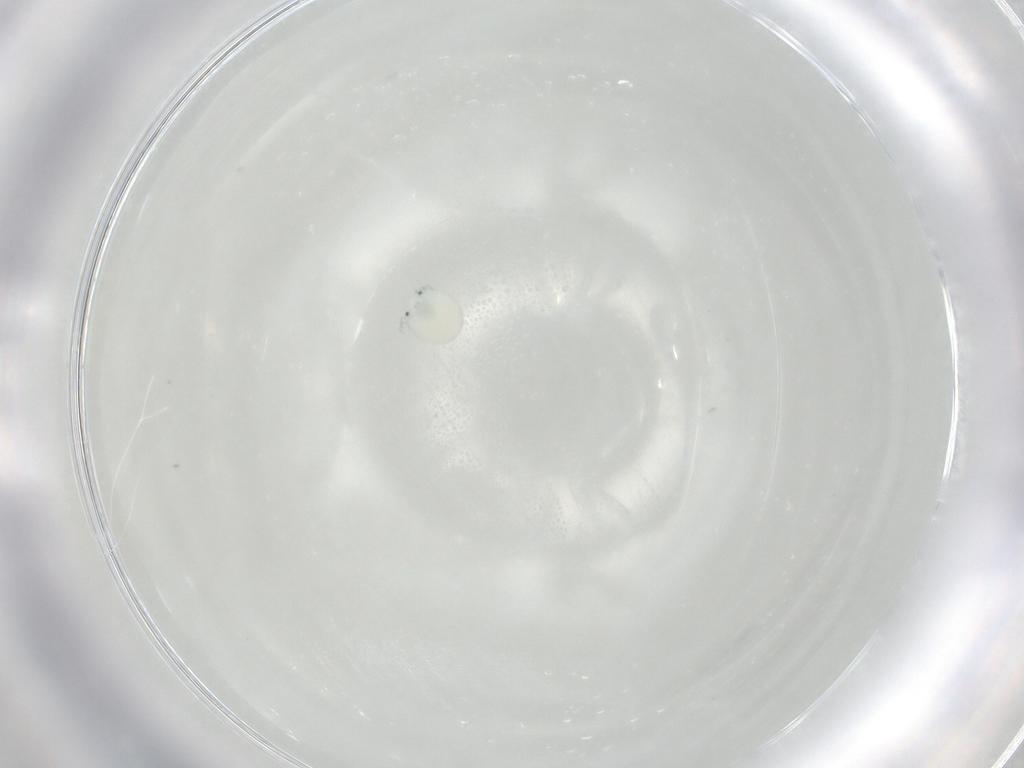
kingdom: Animalia
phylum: Arthropoda
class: Arachnida
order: Trombidiformes
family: Arrenuridae
